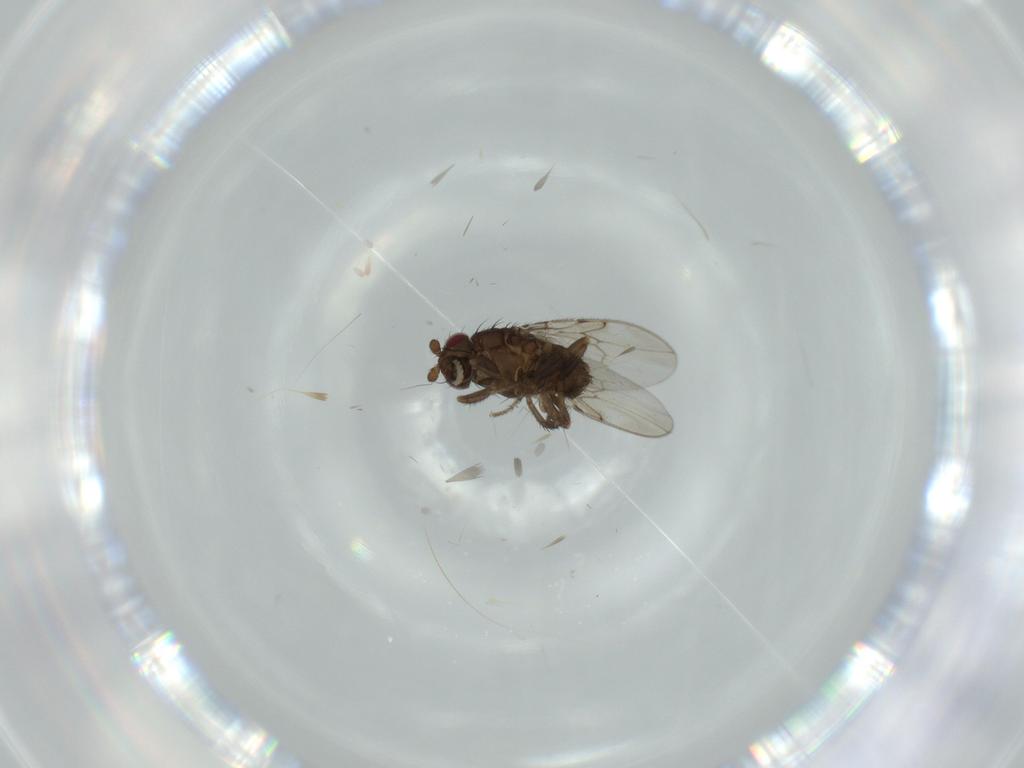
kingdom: Animalia
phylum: Arthropoda
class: Insecta
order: Diptera
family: Sphaeroceridae
